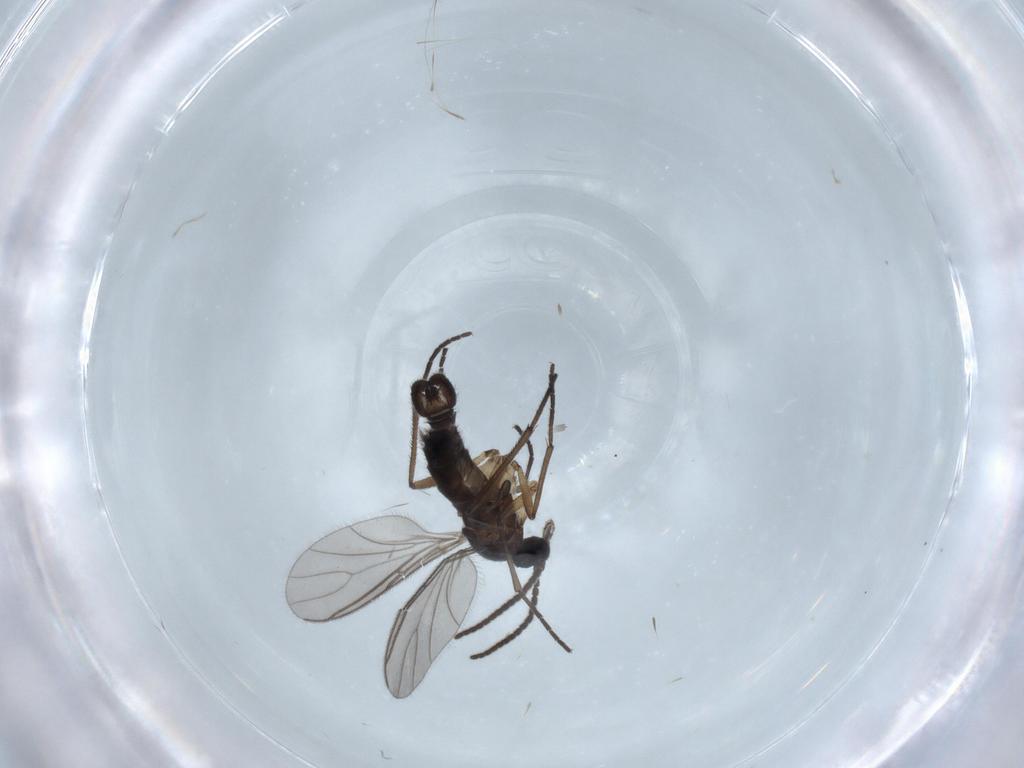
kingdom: Animalia
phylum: Arthropoda
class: Insecta
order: Diptera
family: Sciaridae
